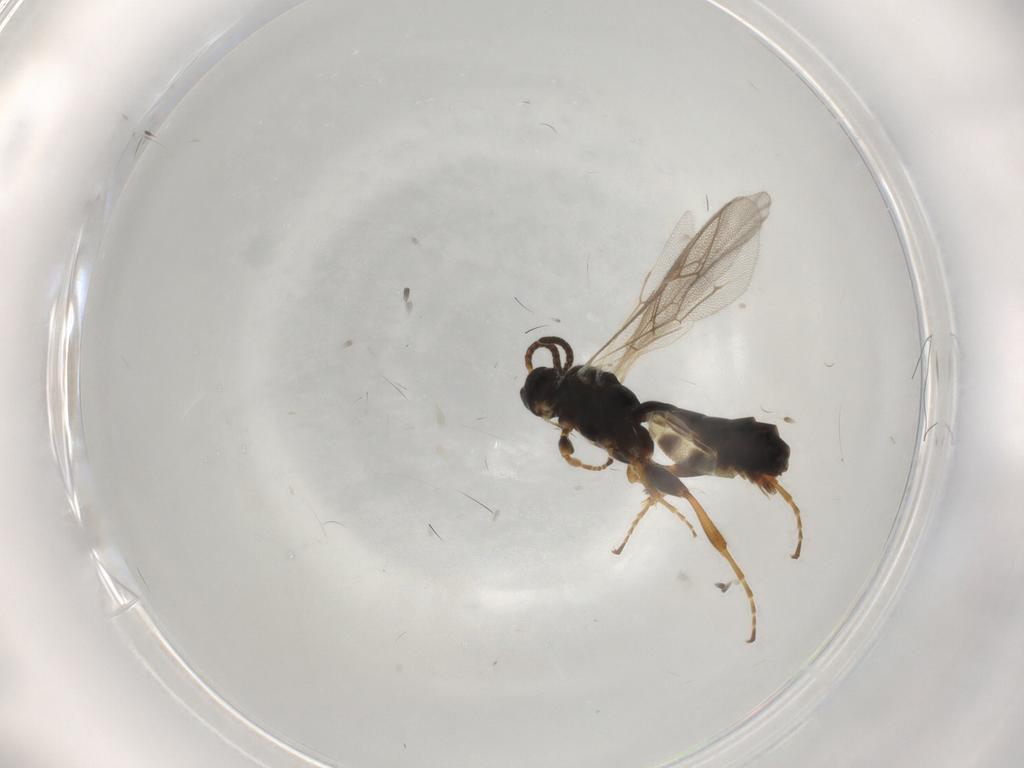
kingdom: Animalia
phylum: Arthropoda
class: Insecta
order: Hymenoptera
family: Ichneumonidae
